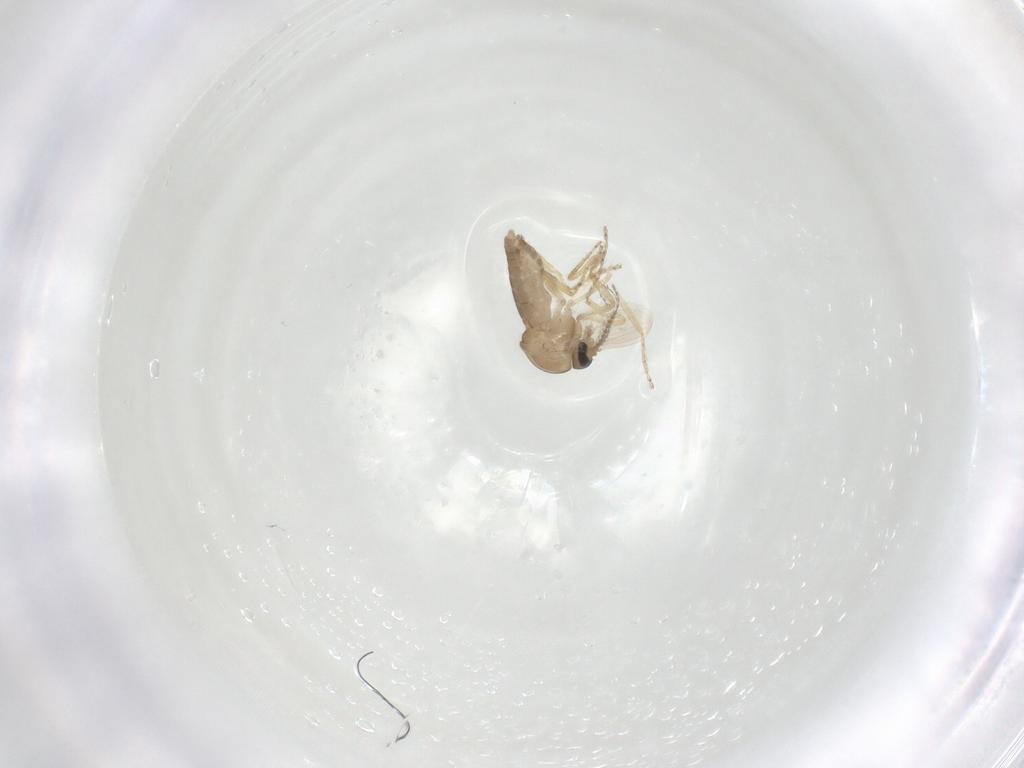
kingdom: Animalia
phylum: Arthropoda
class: Insecta
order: Diptera
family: Ceratopogonidae
